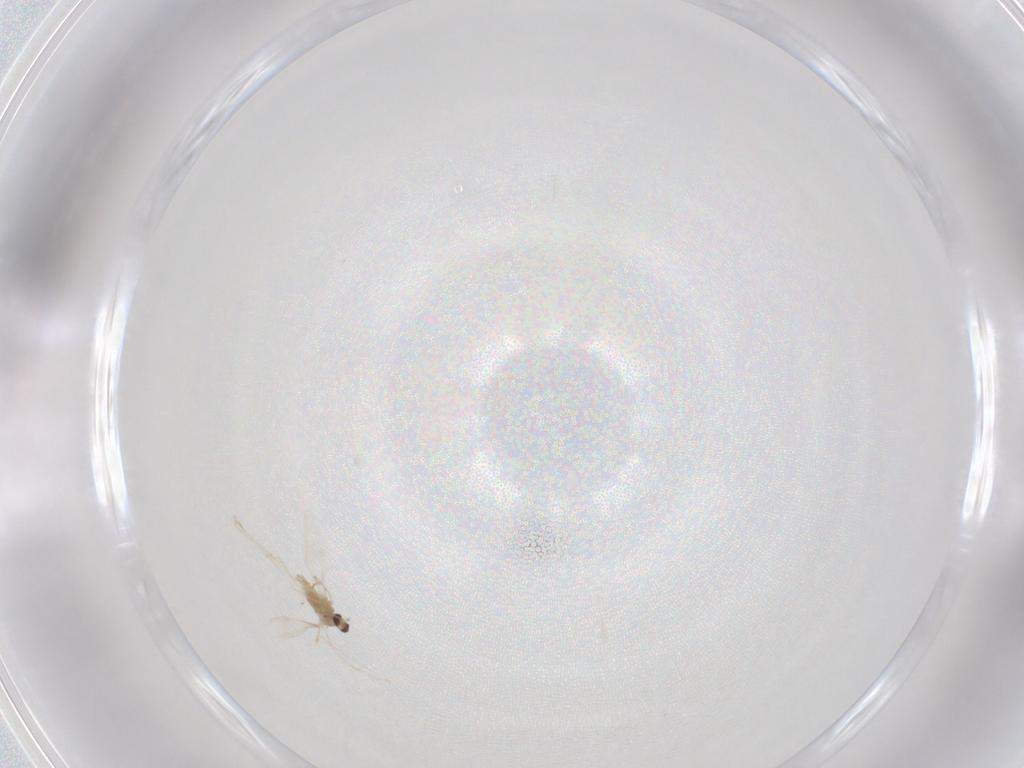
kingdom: Animalia
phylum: Arthropoda
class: Insecta
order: Diptera
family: Cecidomyiidae
